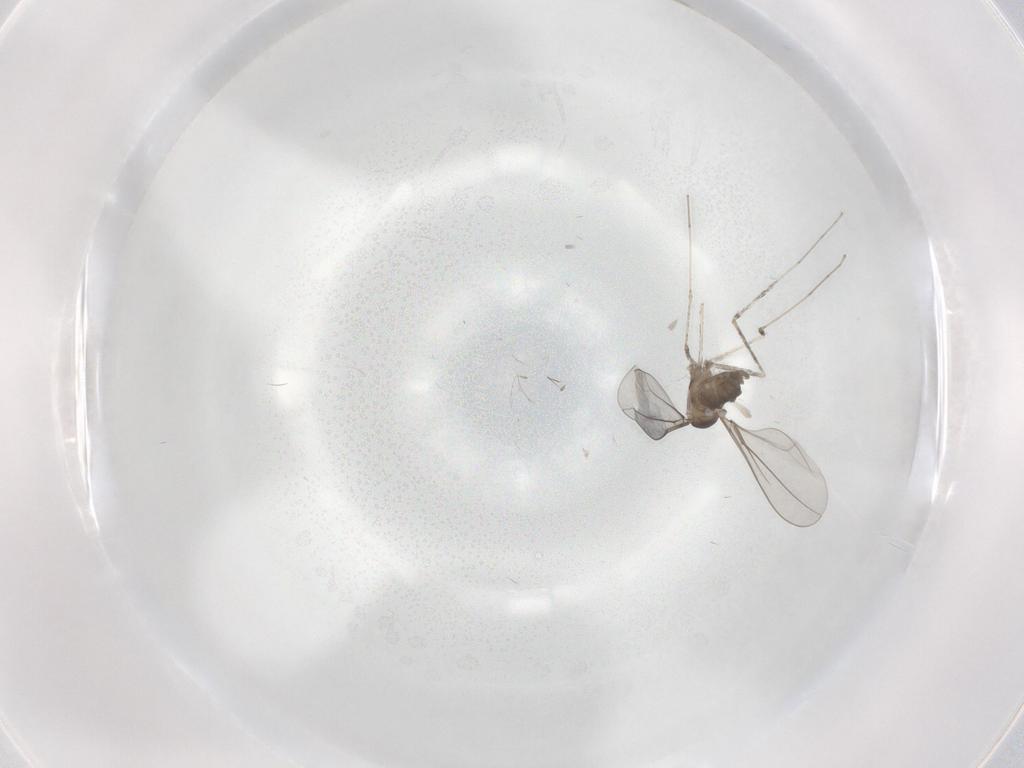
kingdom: Animalia
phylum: Arthropoda
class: Insecta
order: Diptera
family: Cecidomyiidae
